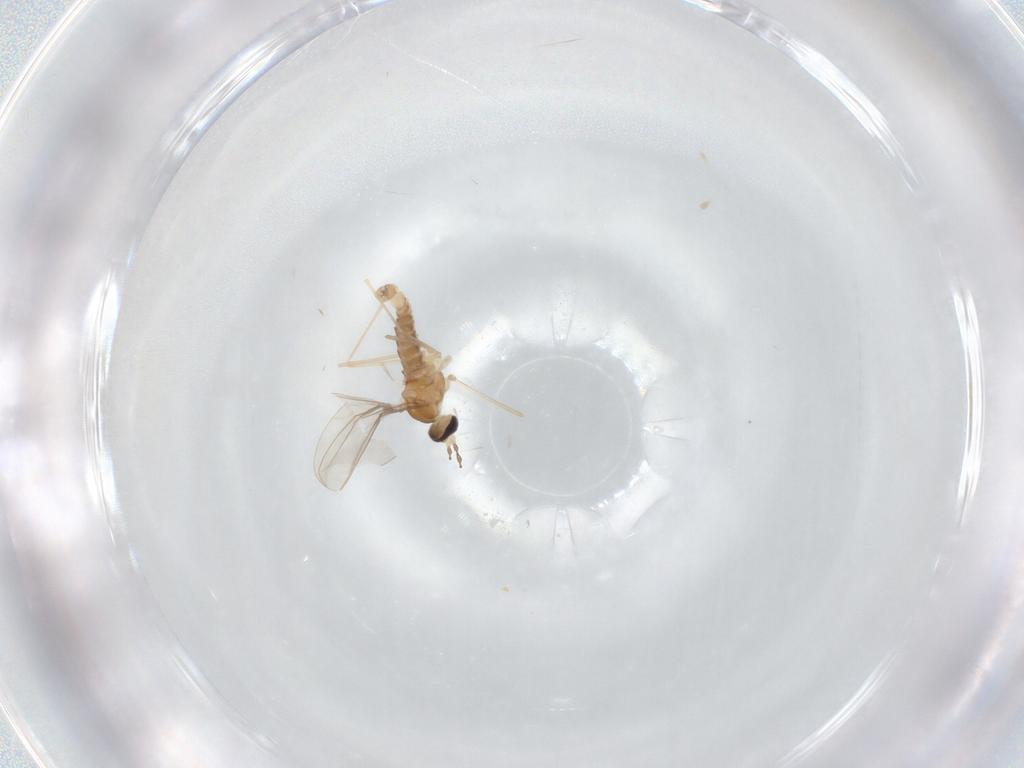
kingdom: Animalia
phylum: Arthropoda
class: Insecta
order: Diptera
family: Cecidomyiidae
